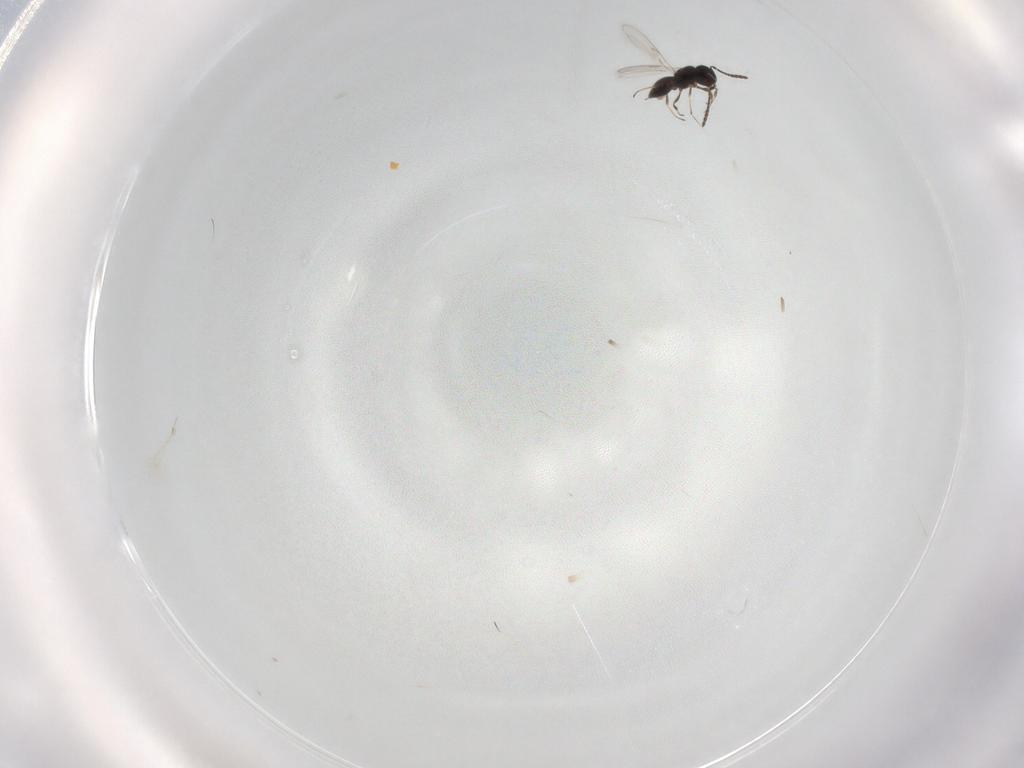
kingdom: Animalia
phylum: Arthropoda
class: Insecta
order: Hymenoptera
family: Scelionidae
